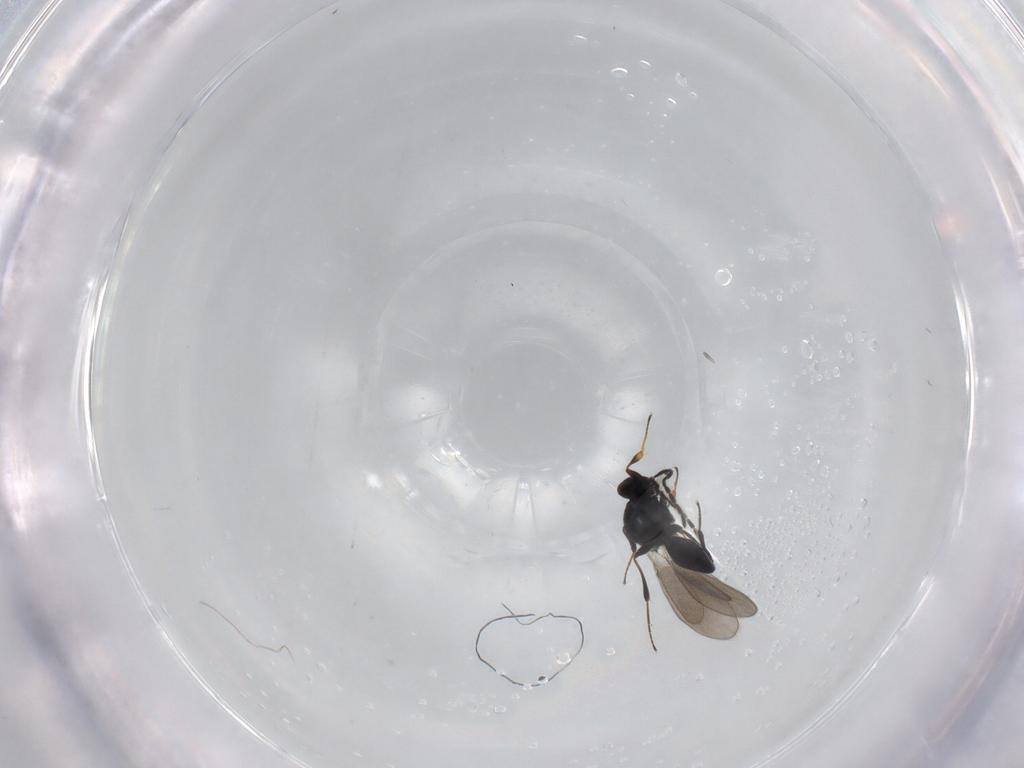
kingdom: Animalia
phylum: Arthropoda
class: Insecta
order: Hymenoptera
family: Platygastridae
